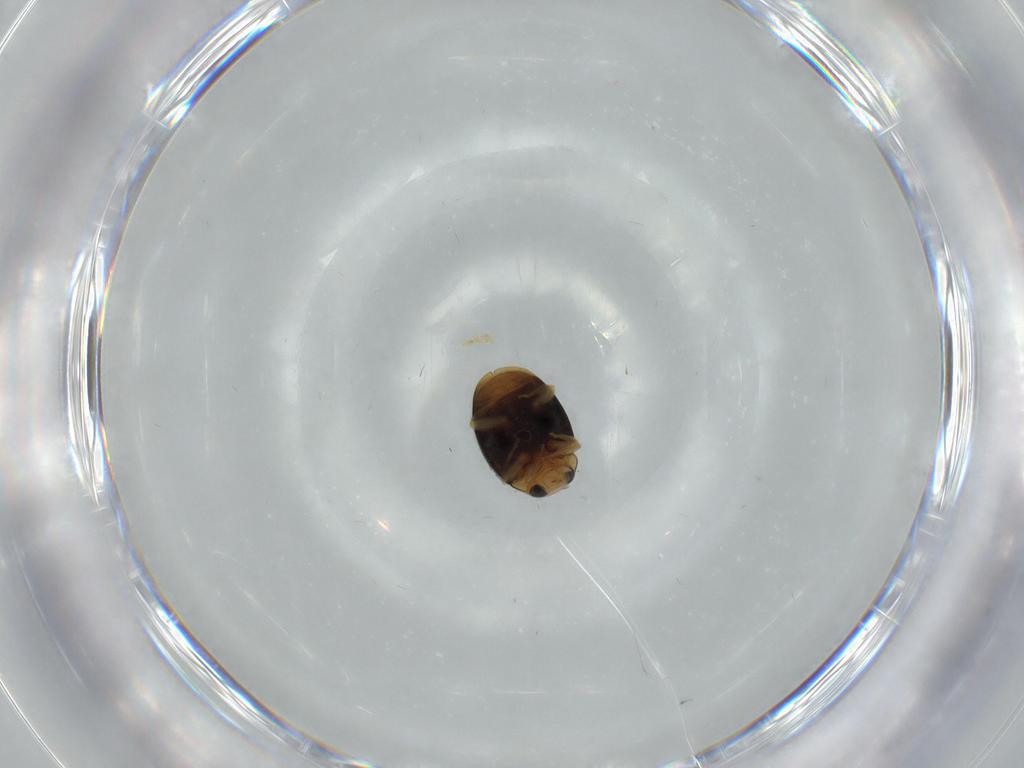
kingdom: Animalia
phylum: Arthropoda
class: Insecta
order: Coleoptera
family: Coccinellidae
